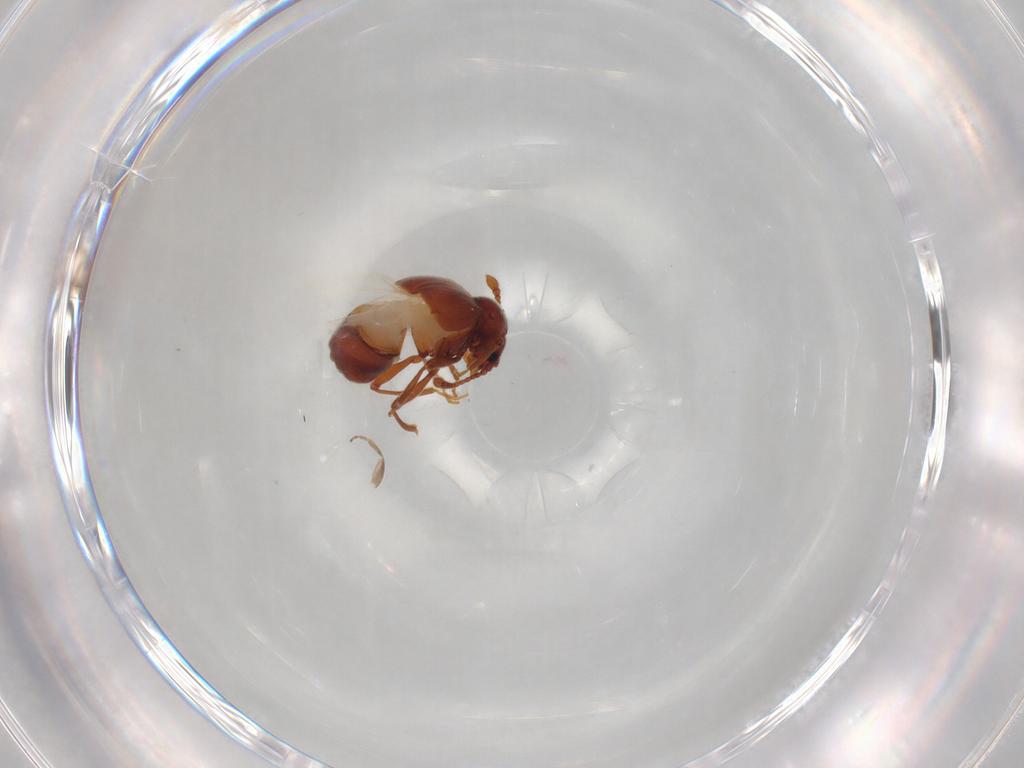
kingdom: Animalia
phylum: Arthropoda
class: Insecta
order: Coleoptera
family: Staphylinidae
